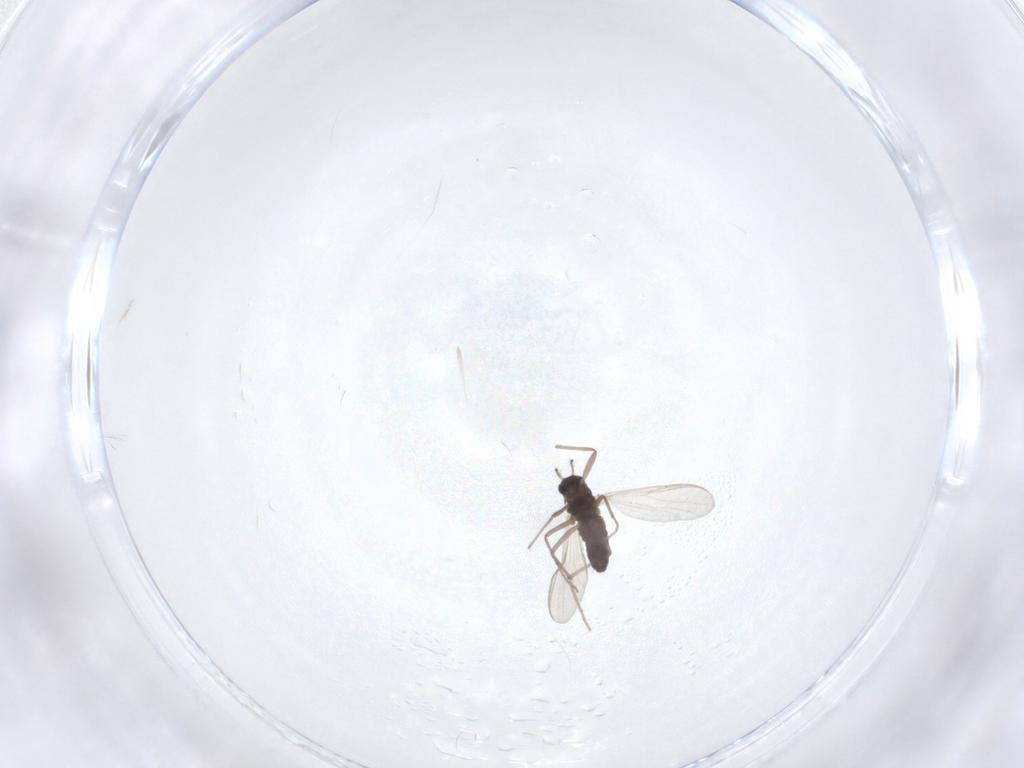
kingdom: Animalia
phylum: Arthropoda
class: Insecta
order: Diptera
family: Chironomidae
